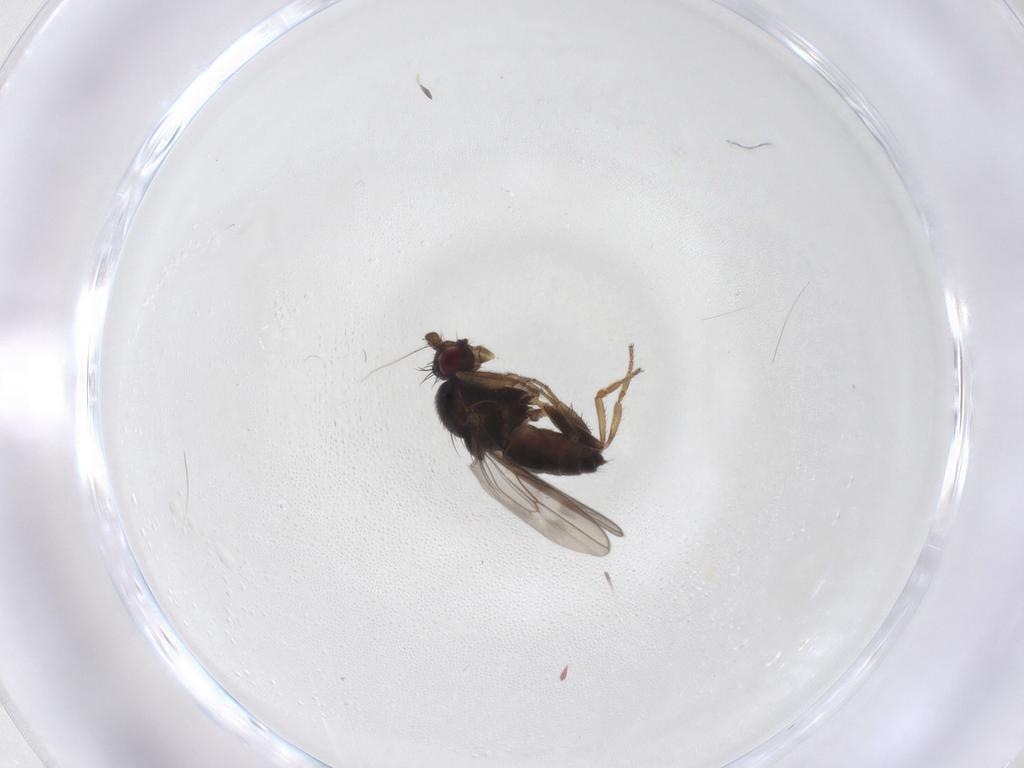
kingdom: Animalia
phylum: Arthropoda
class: Insecta
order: Diptera
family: Sphaeroceridae
